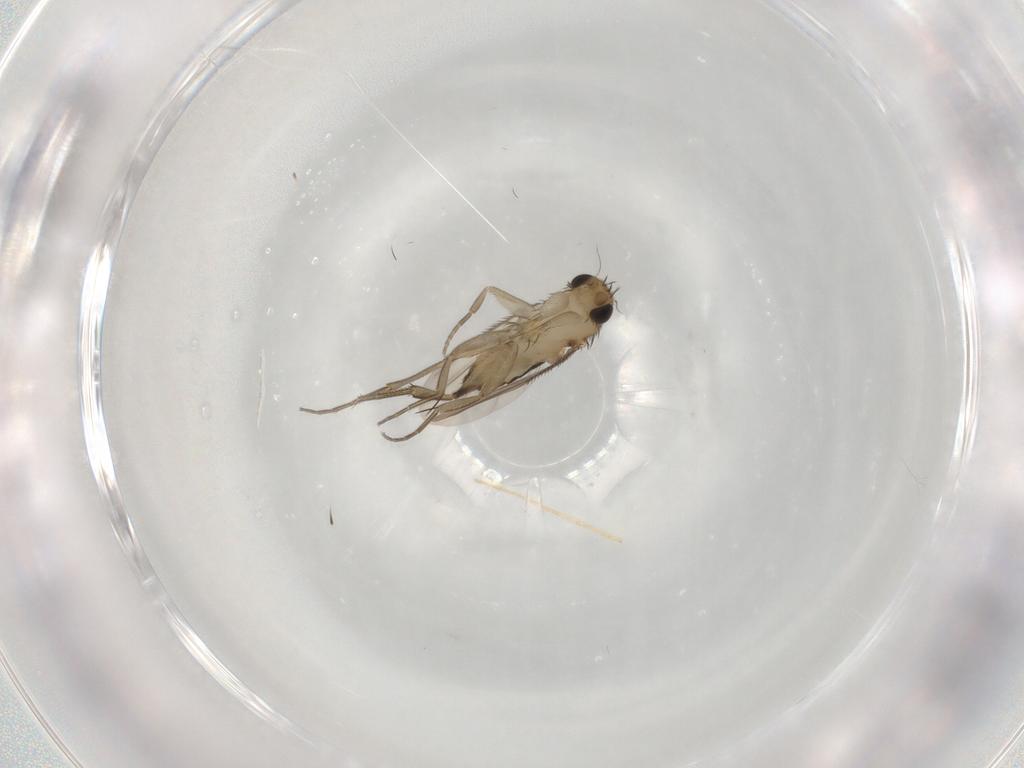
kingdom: Animalia
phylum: Arthropoda
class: Insecta
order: Diptera
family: Phoridae
